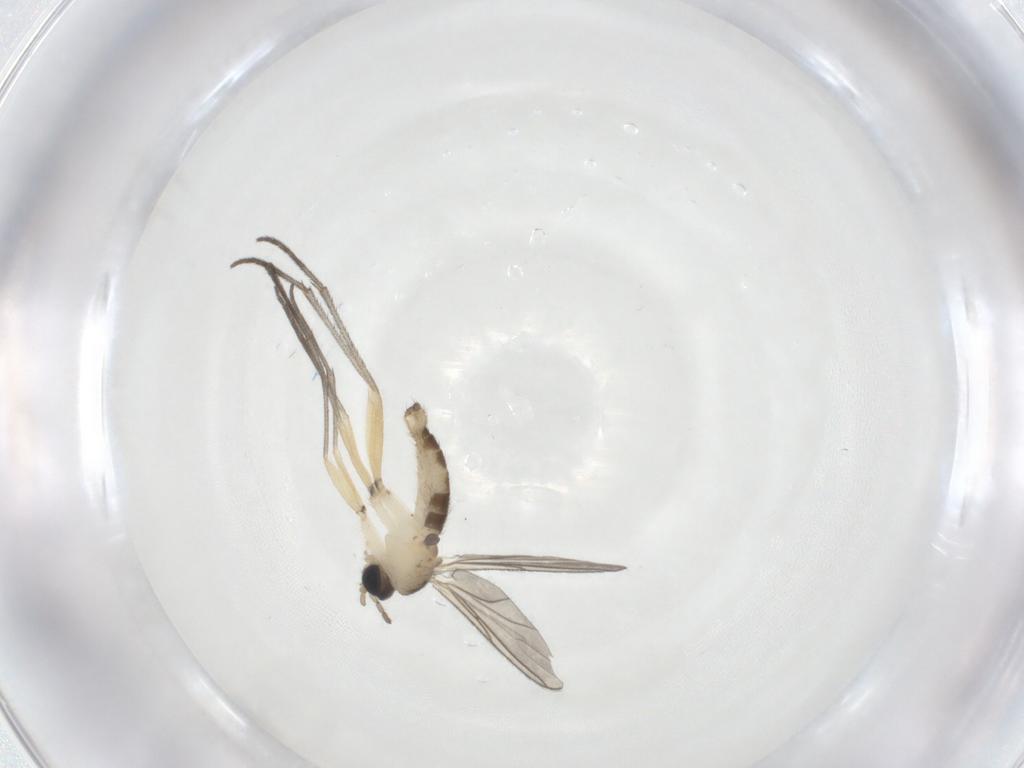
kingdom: Animalia
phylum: Arthropoda
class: Insecta
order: Diptera
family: Sciaridae
